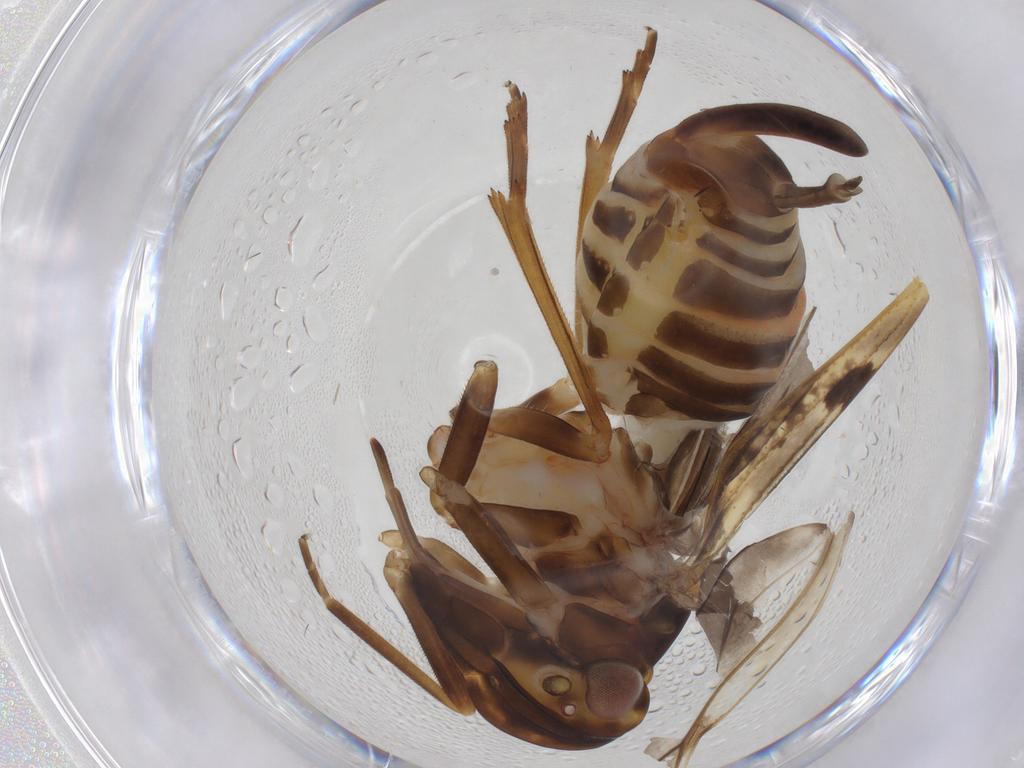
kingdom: Animalia
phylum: Arthropoda
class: Insecta
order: Hemiptera
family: Cixiidae
